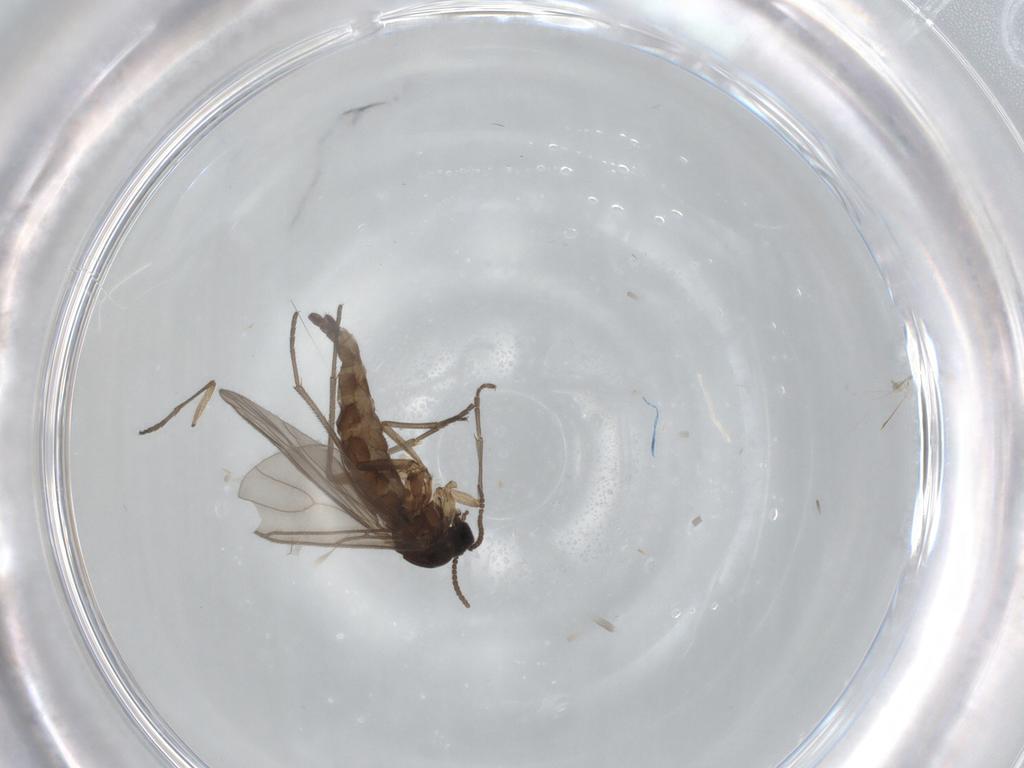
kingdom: Animalia
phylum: Arthropoda
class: Insecta
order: Diptera
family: Sciaridae
